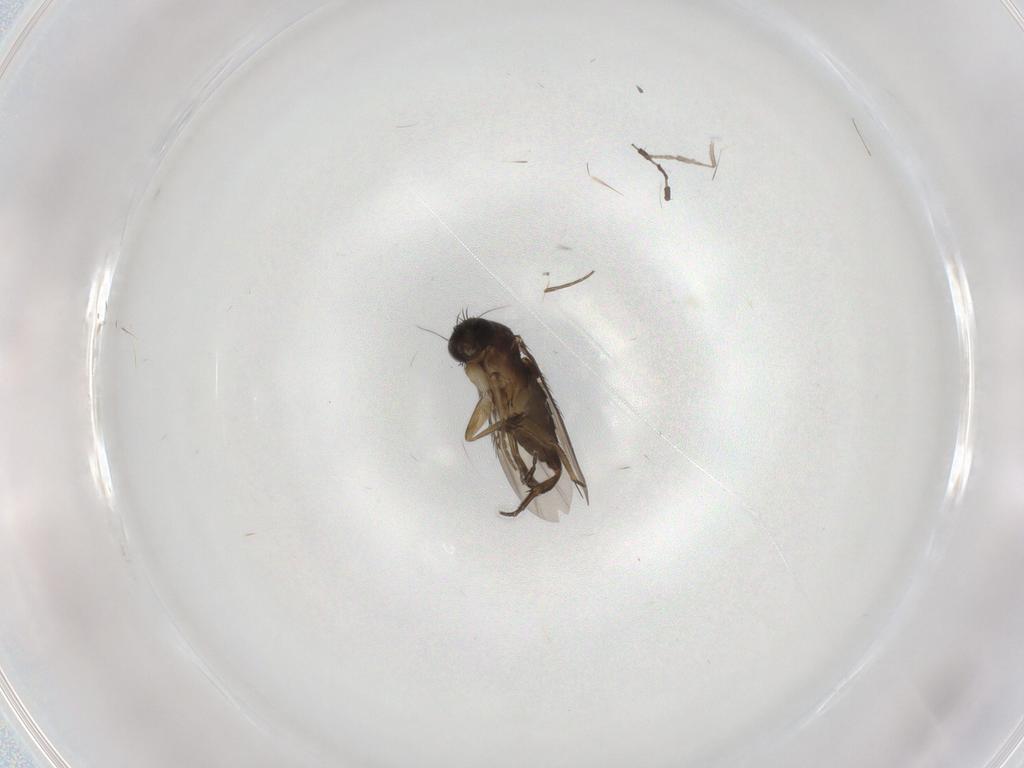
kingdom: Animalia
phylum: Arthropoda
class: Insecta
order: Diptera
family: Phoridae
